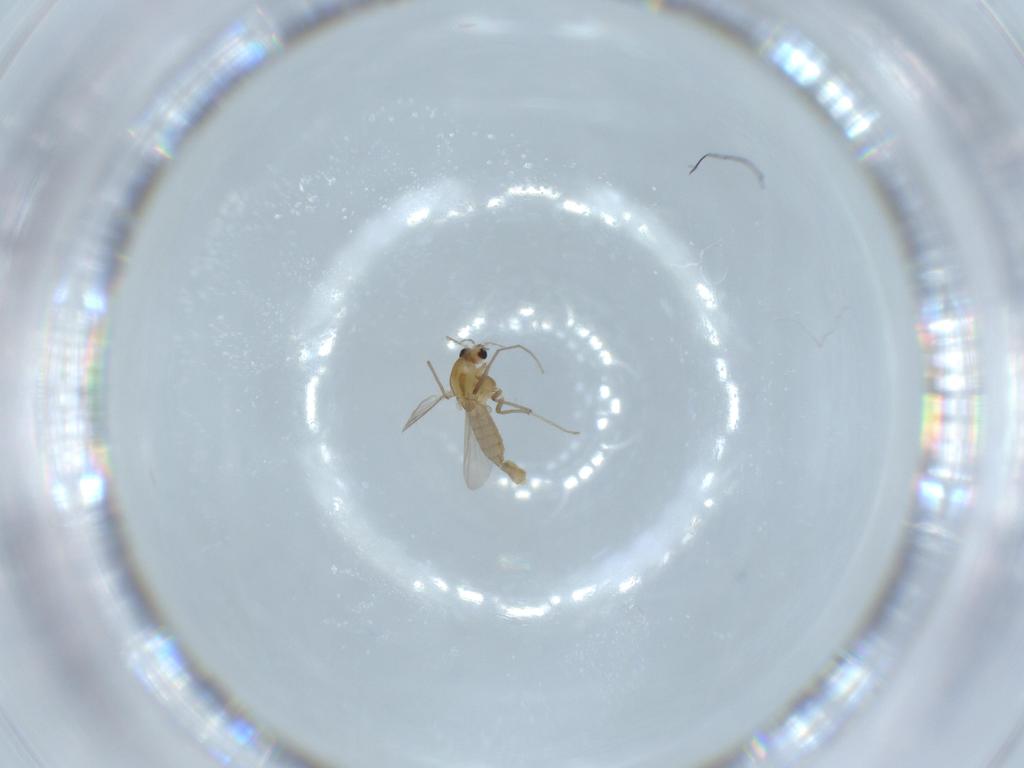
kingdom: Animalia
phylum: Arthropoda
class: Insecta
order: Diptera
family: Chironomidae
